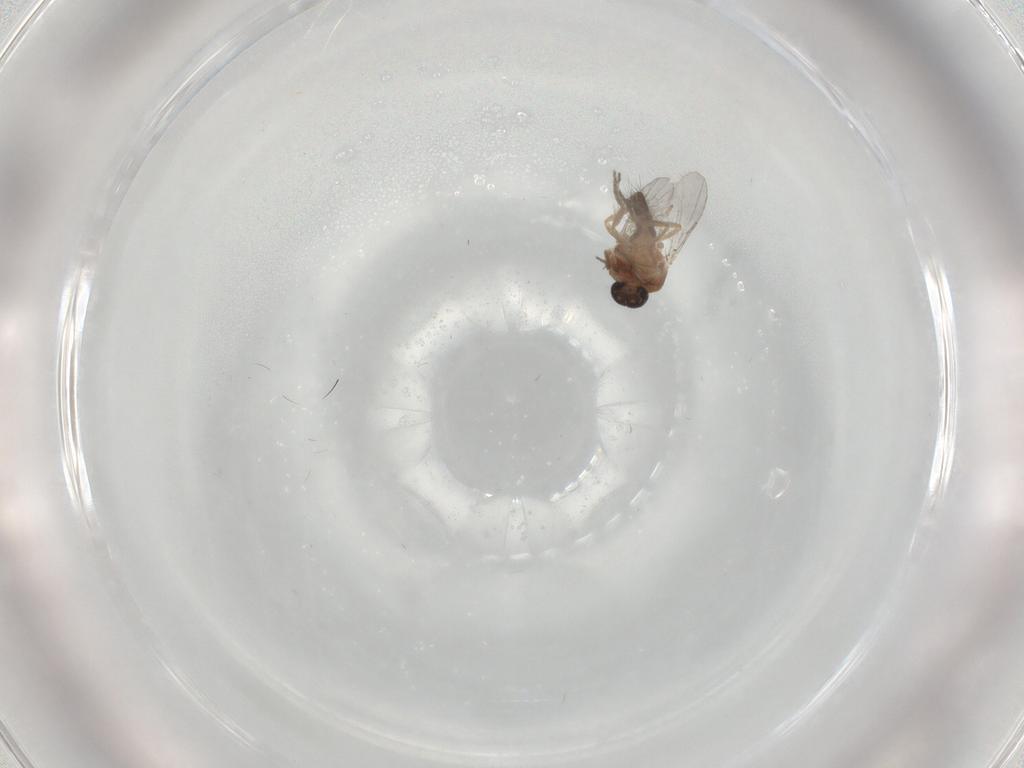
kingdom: Animalia
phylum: Arthropoda
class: Insecta
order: Diptera
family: Ceratopogonidae
